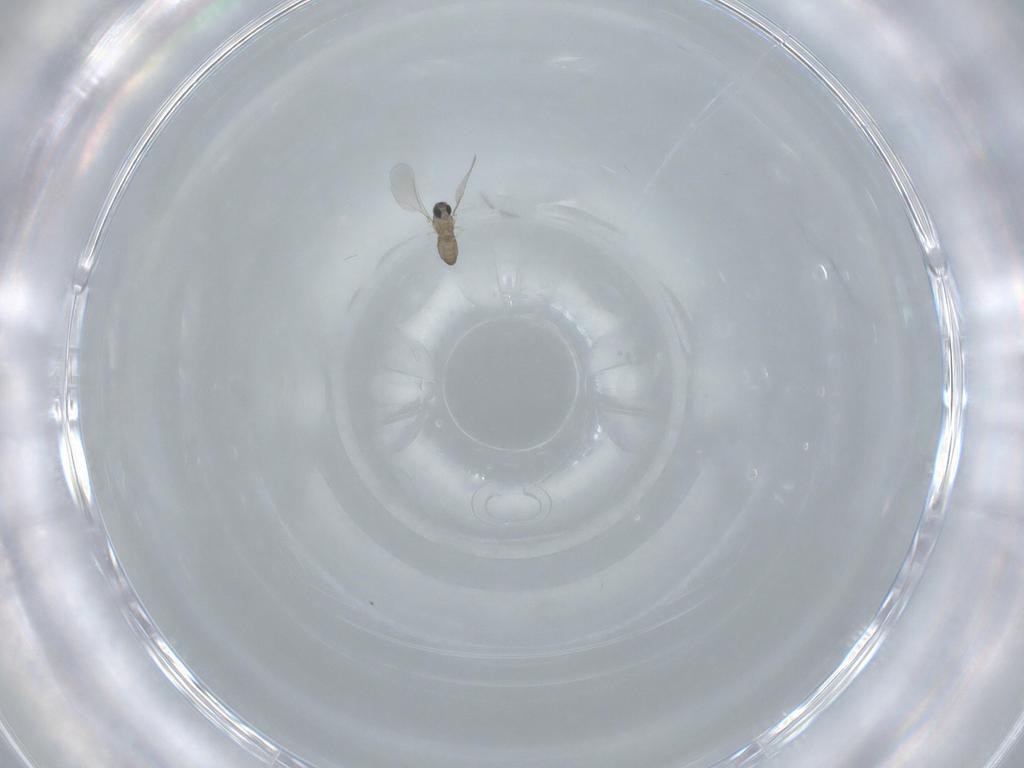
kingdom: Animalia
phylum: Arthropoda
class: Insecta
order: Diptera
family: Cecidomyiidae
